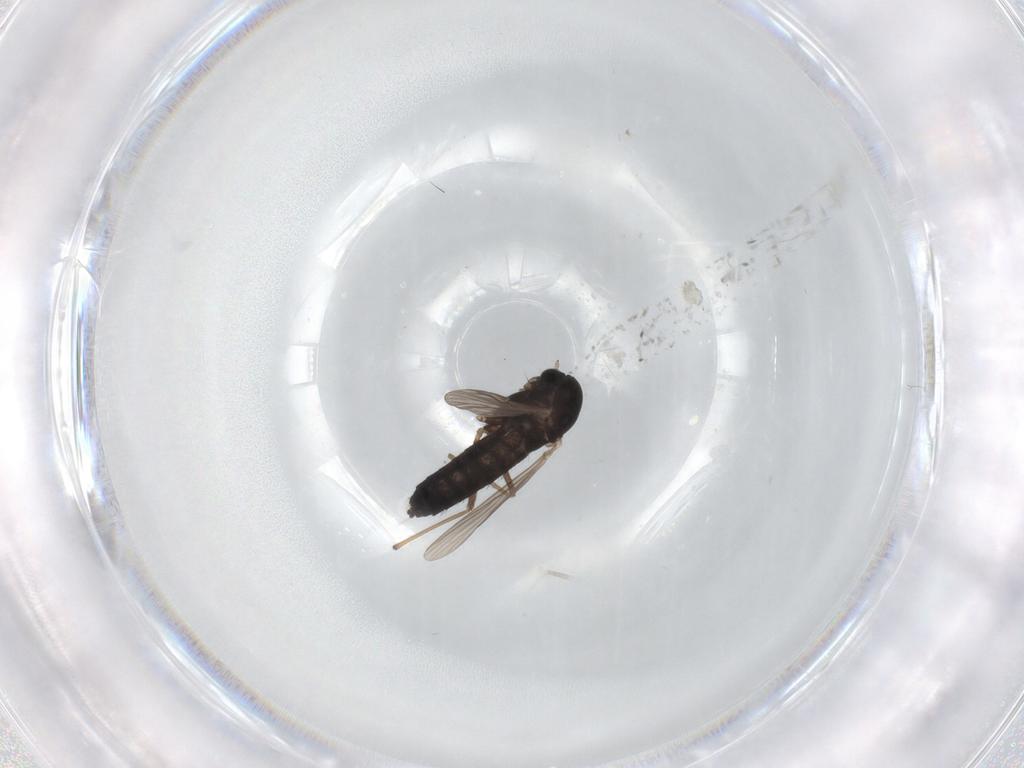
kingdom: Animalia
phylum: Arthropoda
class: Insecta
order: Diptera
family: Chironomidae
